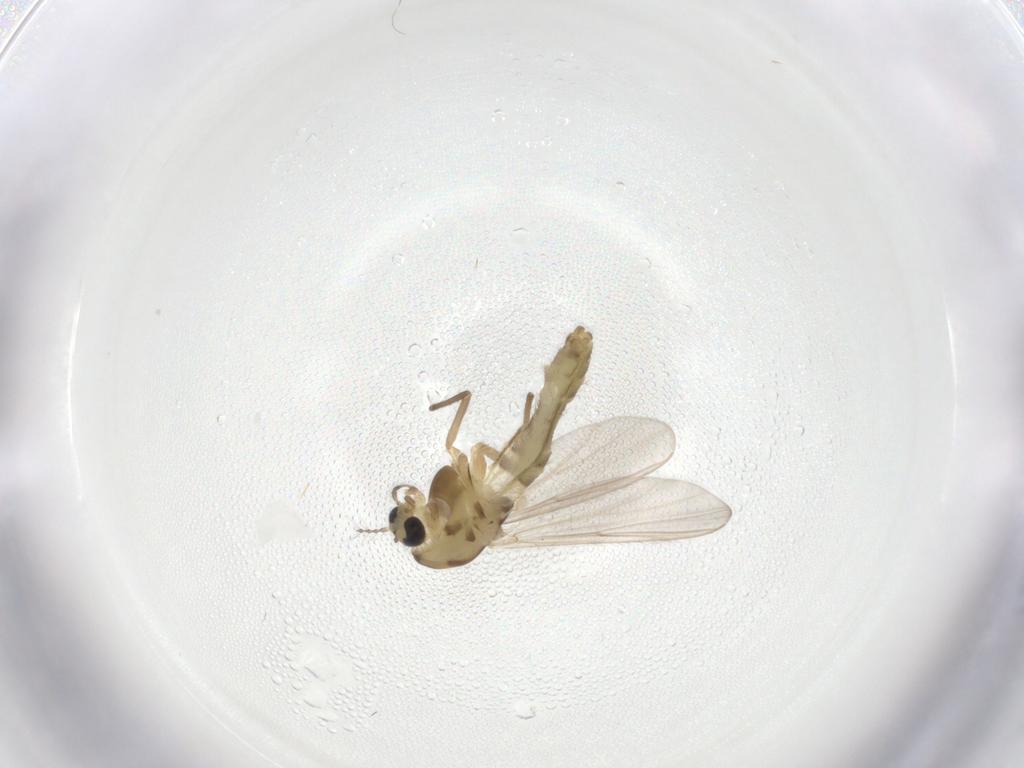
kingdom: Animalia
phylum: Arthropoda
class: Insecta
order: Diptera
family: Chironomidae
